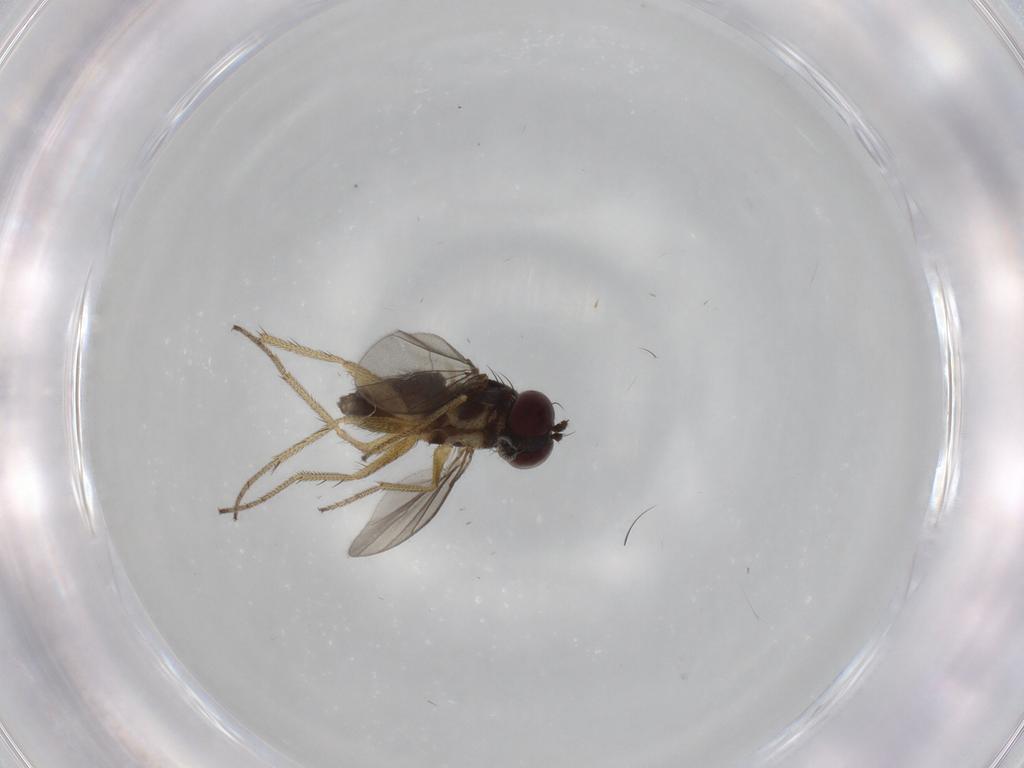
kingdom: Animalia
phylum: Arthropoda
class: Insecta
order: Diptera
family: Dolichopodidae
